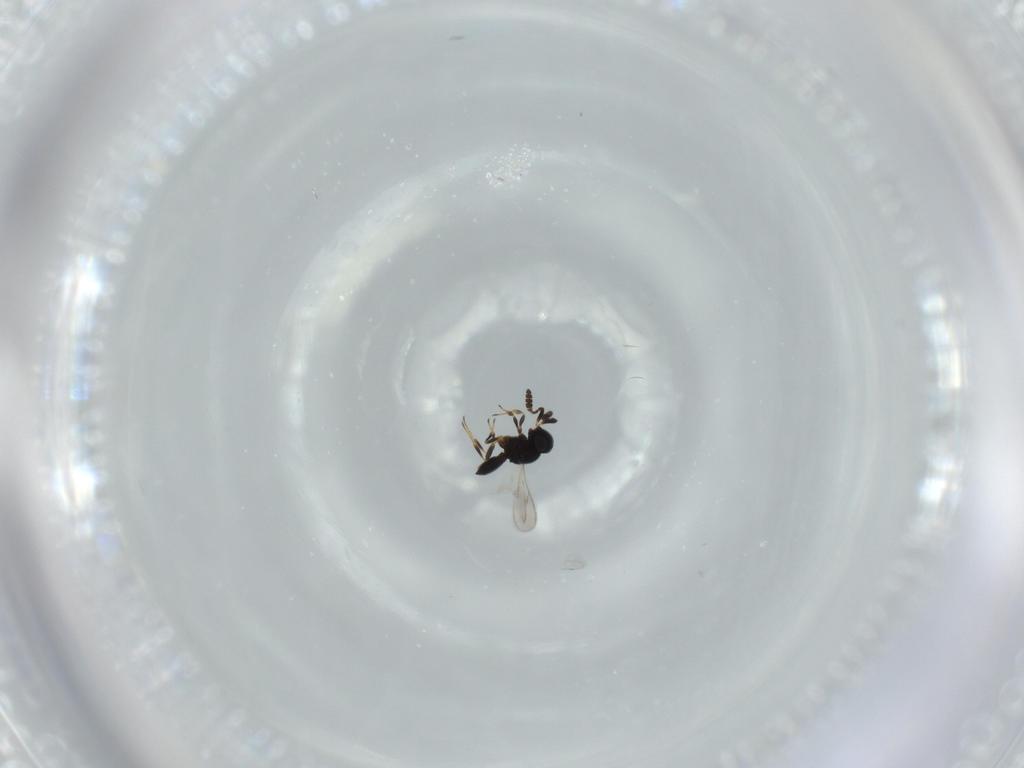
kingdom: Animalia
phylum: Arthropoda
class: Insecta
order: Hymenoptera
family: Scelionidae
